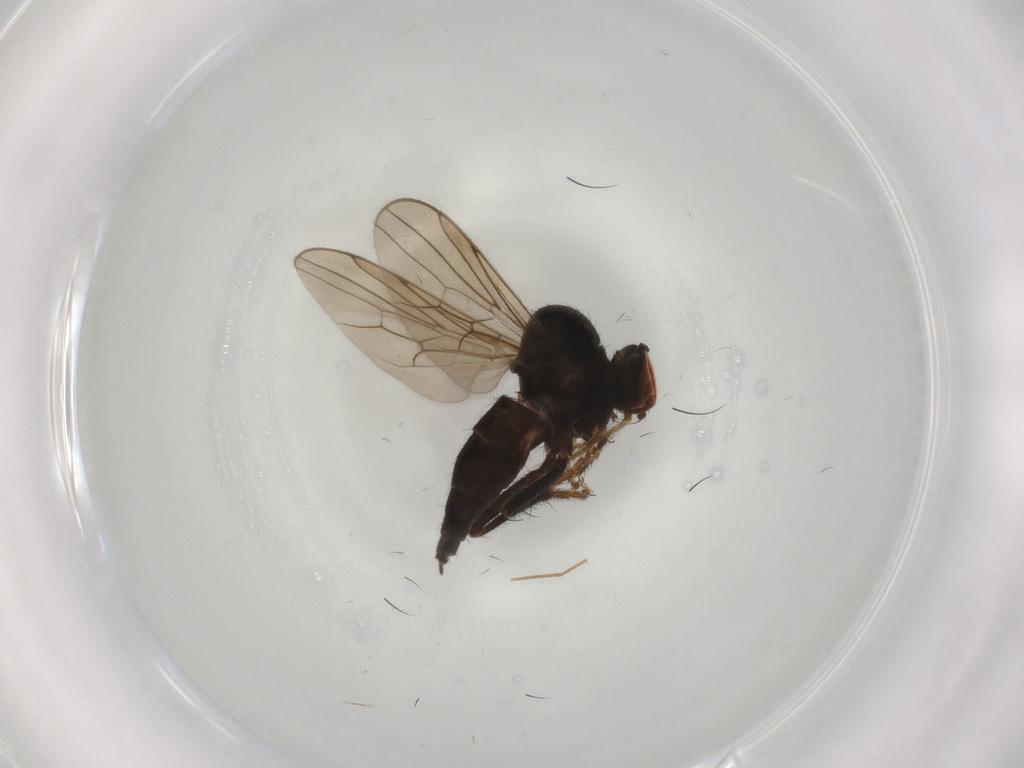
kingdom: Animalia
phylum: Arthropoda
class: Insecta
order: Diptera
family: Hybotidae
